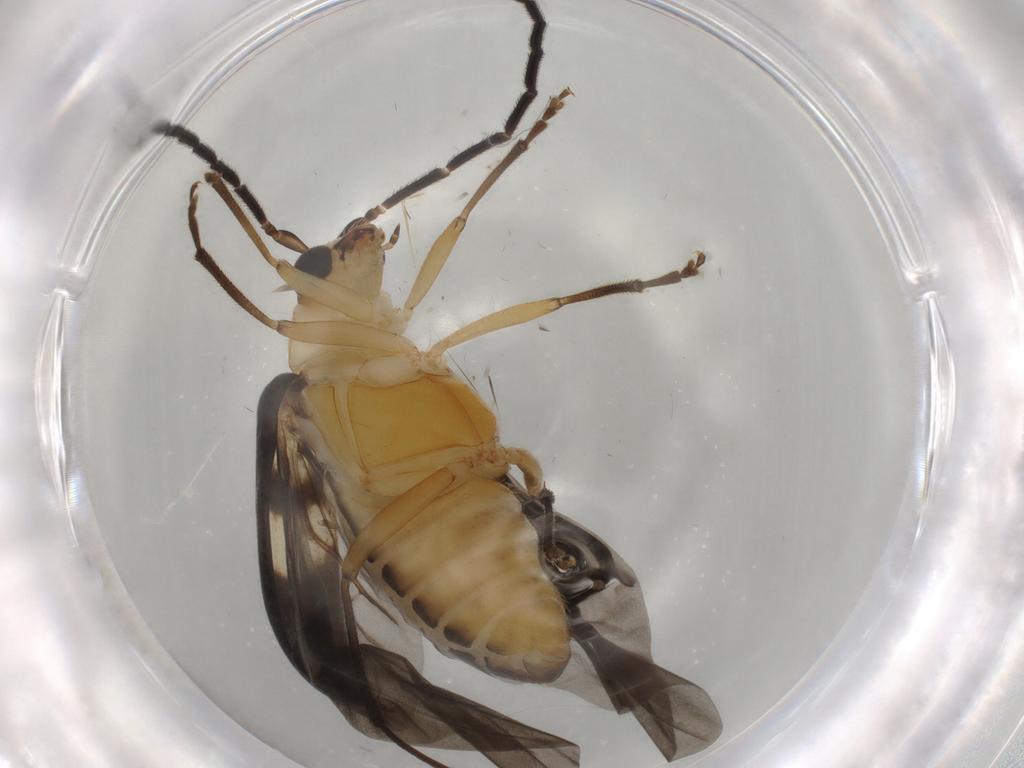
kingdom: Animalia
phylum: Arthropoda
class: Insecta
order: Coleoptera
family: Chrysomelidae
